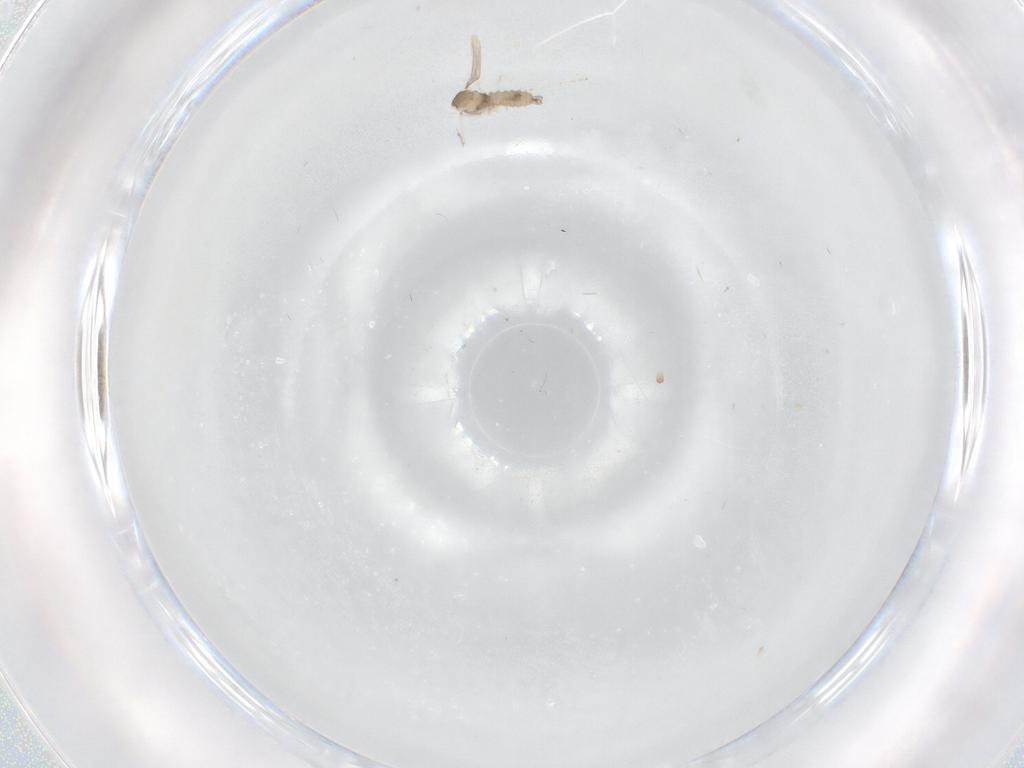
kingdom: Animalia
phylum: Arthropoda
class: Insecta
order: Diptera
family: Cecidomyiidae
